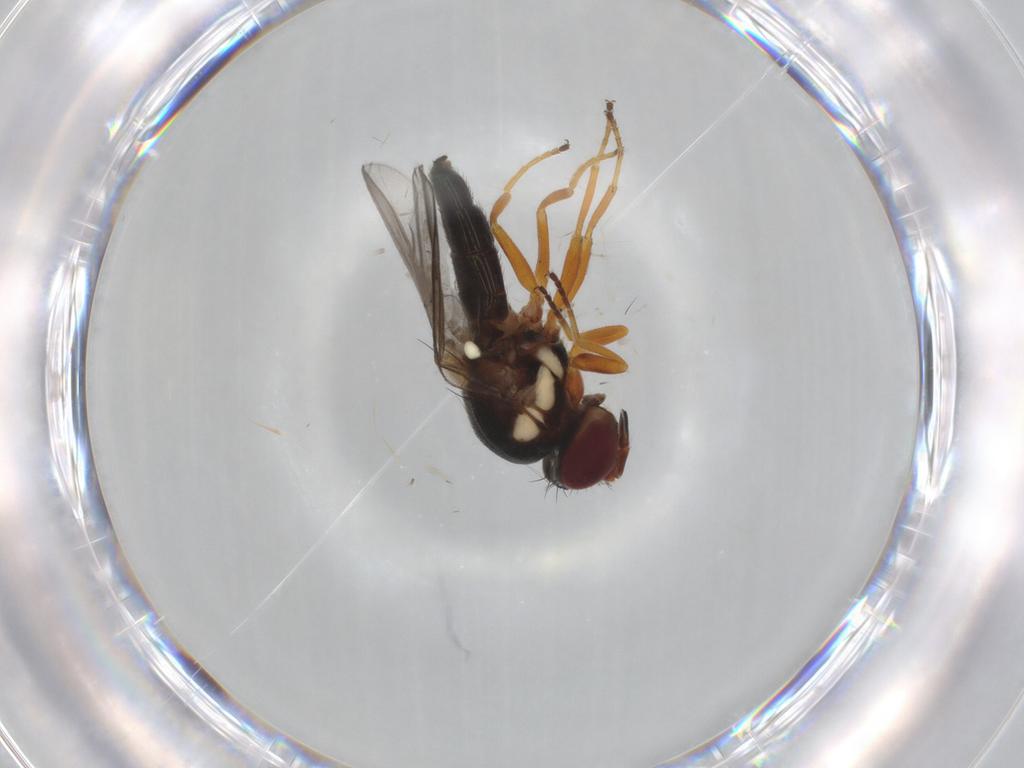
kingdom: Animalia
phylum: Arthropoda
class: Insecta
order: Diptera
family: Chloropidae
